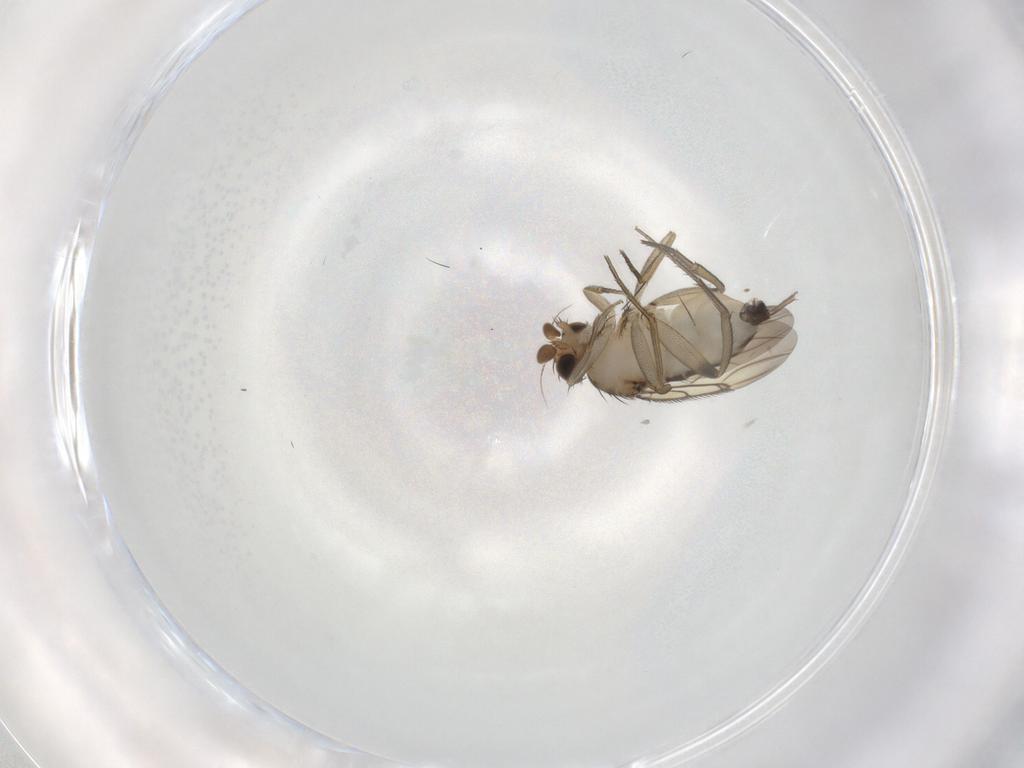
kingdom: Animalia
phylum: Arthropoda
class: Insecta
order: Diptera
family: Phoridae
